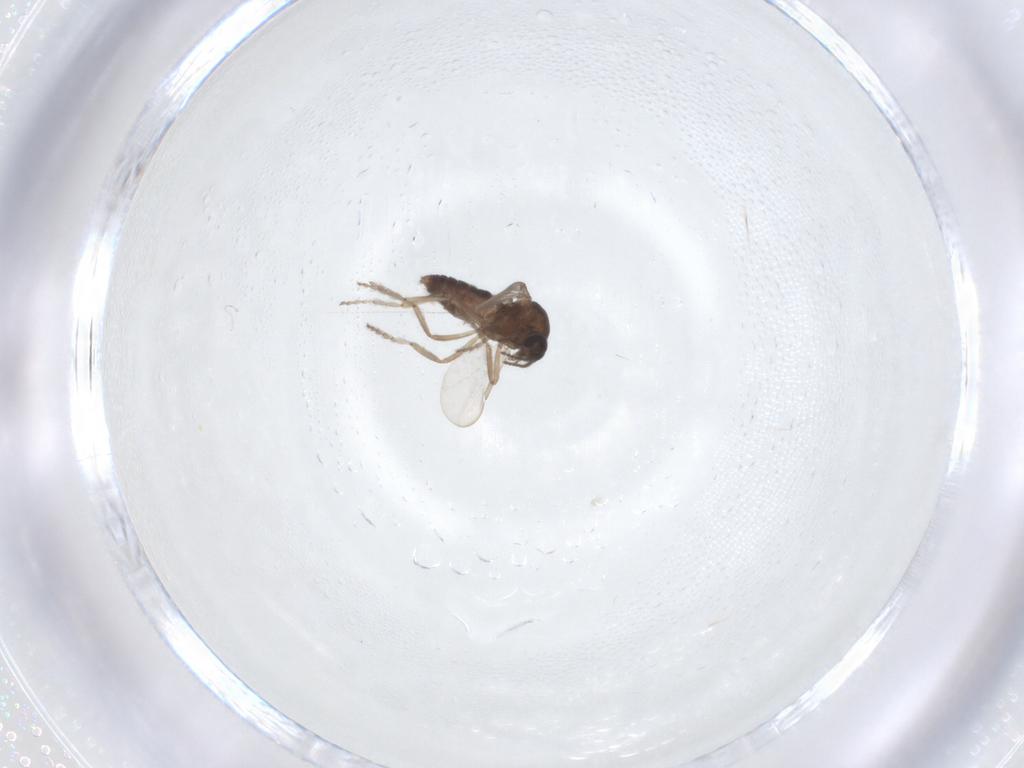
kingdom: Animalia
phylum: Arthropoda
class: Insecta
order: Diptera
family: Ceratopogonidae
